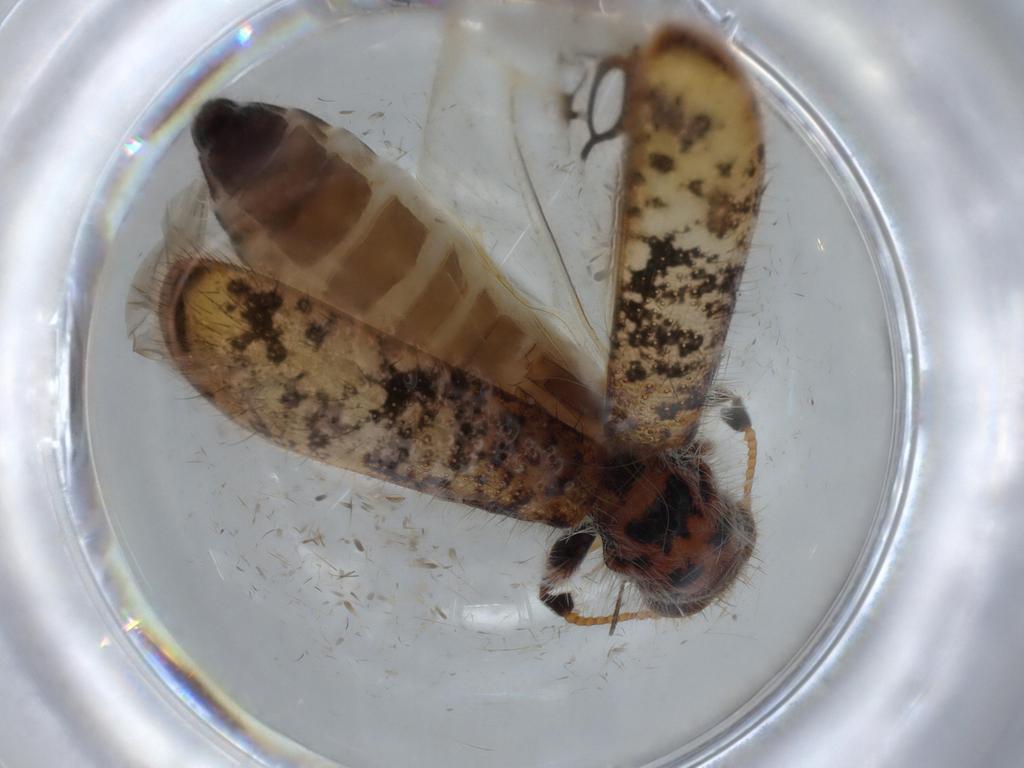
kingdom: Animalia
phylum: Arthropoda
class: Insecta
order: Coleoptera
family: Cleridae
